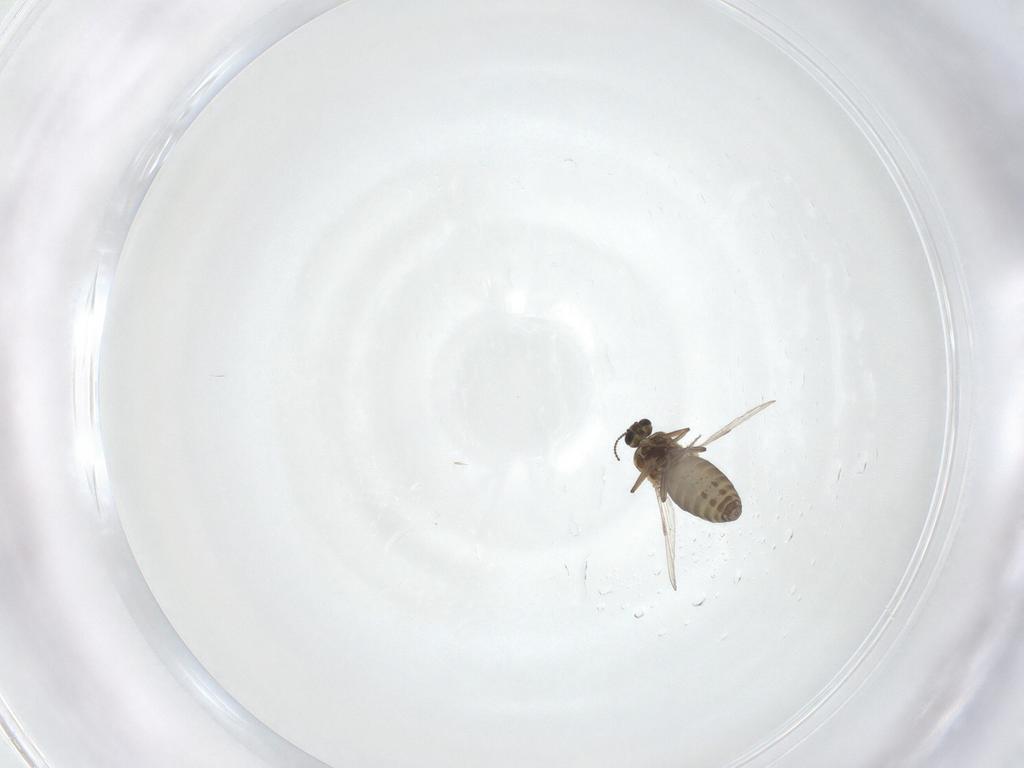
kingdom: Animalia
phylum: Arthropoda
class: Insecta
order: Diptera
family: Ceratopogonidae
